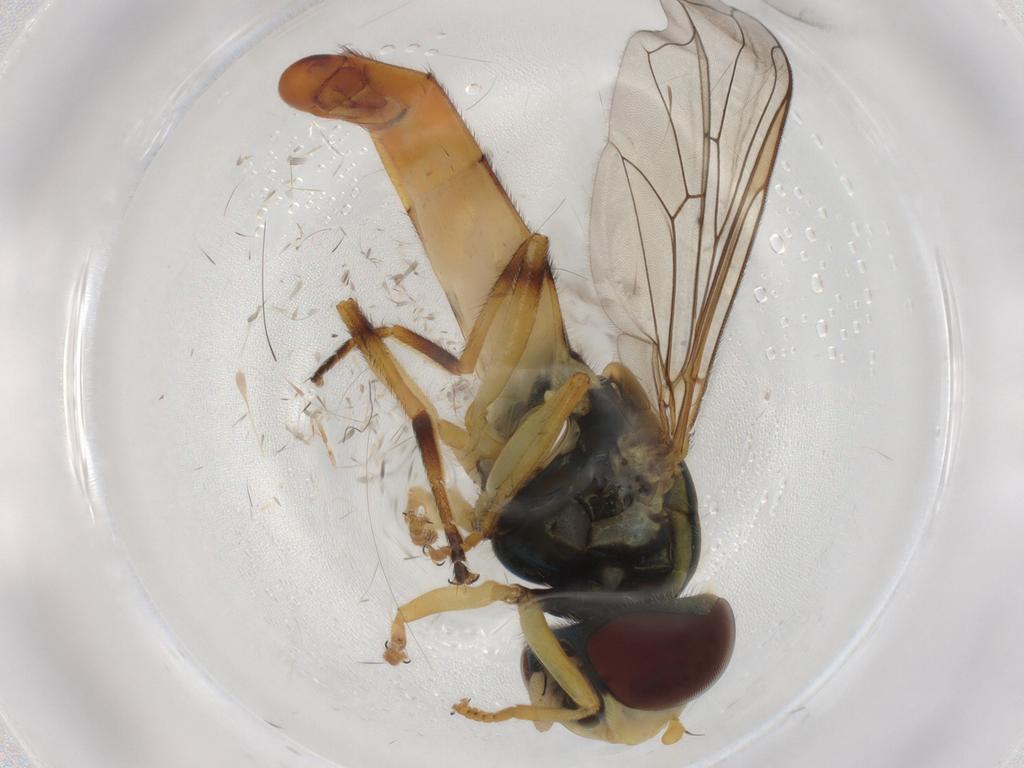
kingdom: Animalia
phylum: Arthropoda
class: Insecta
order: Diptera
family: Syrphidae
